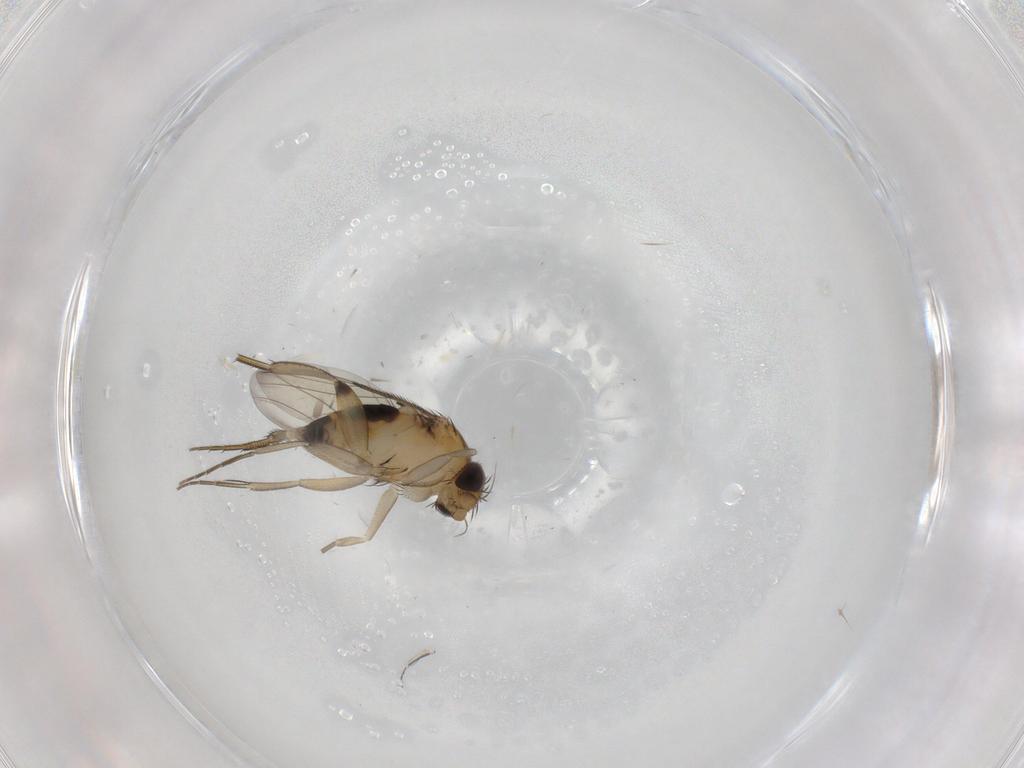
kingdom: Animalia
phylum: Arthropoda
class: Insecta
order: Diptera
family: Phoridae
